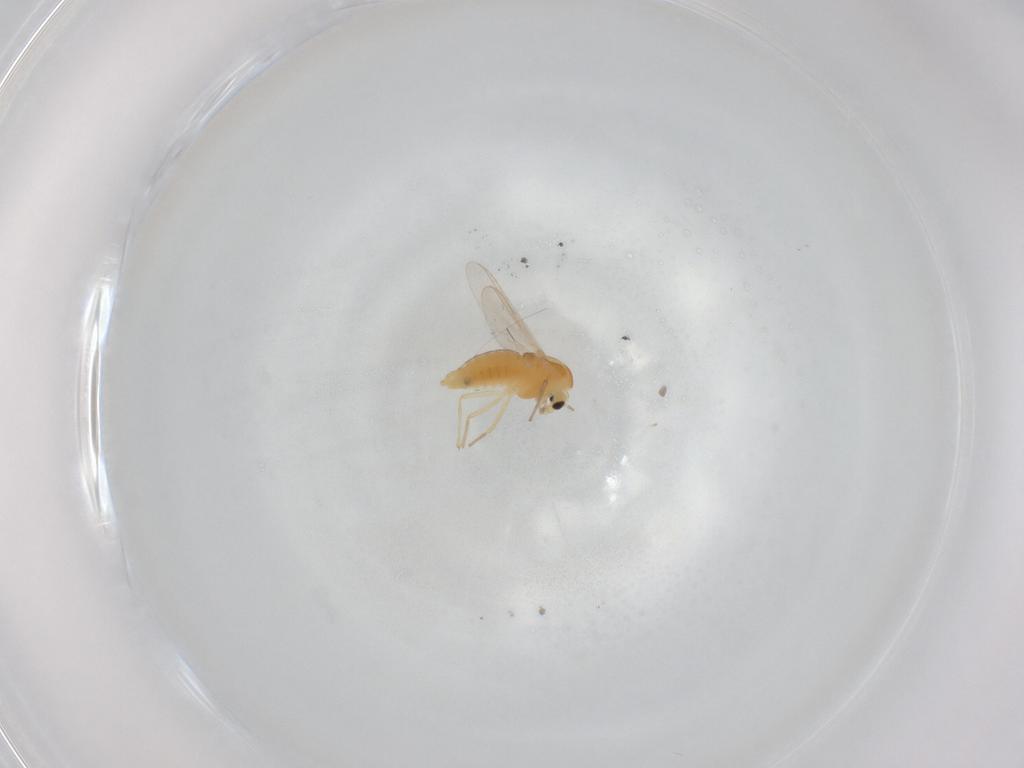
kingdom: Animalia
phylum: Arthropoda
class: Insecta
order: Diptera
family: Chironomidae
